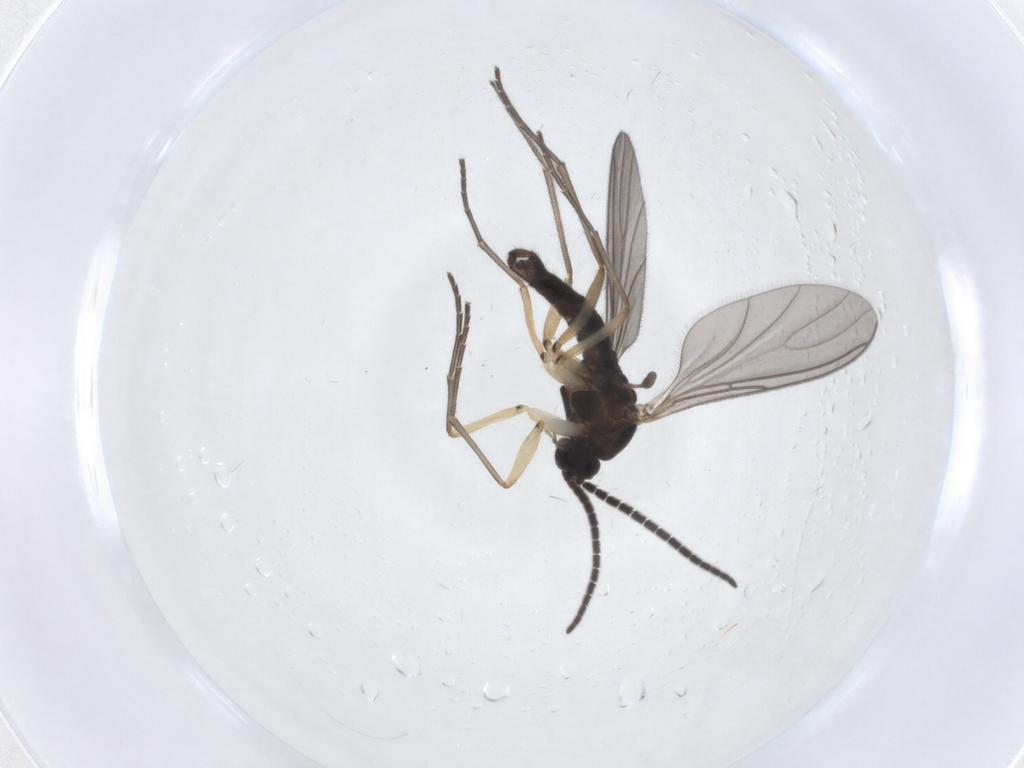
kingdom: Animalia
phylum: Arthropoda
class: Insecta
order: Diptera
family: Sciaridae
